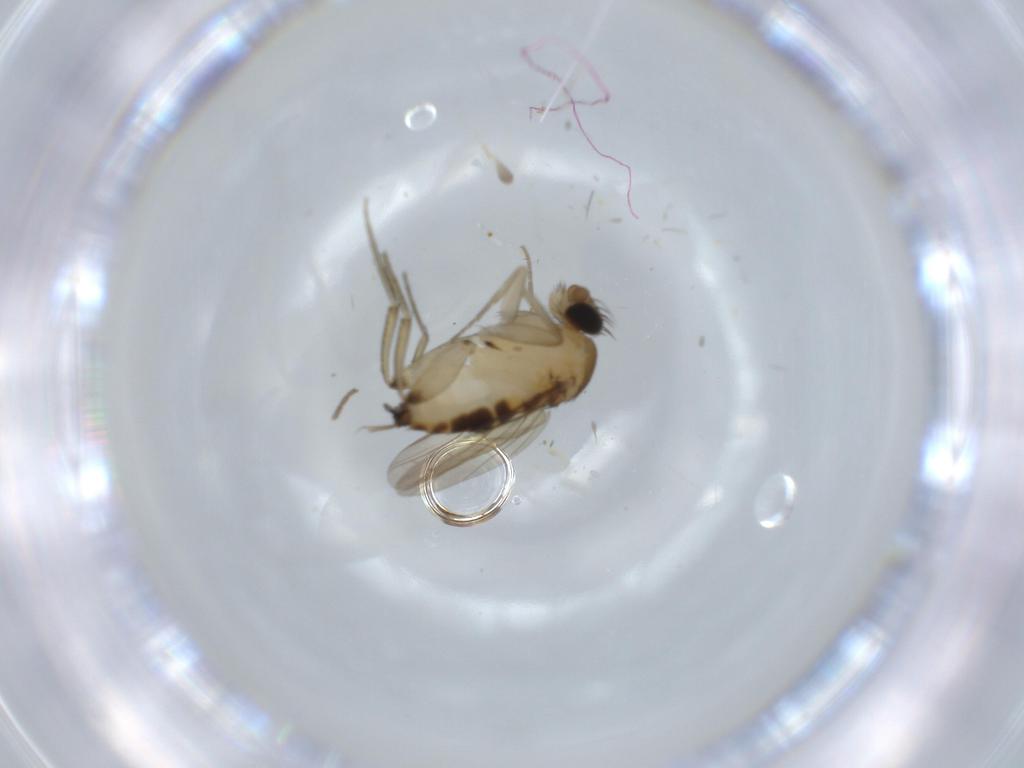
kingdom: Animalia
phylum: Arthropoda
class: Insecta
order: Diptera
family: Phoridae
